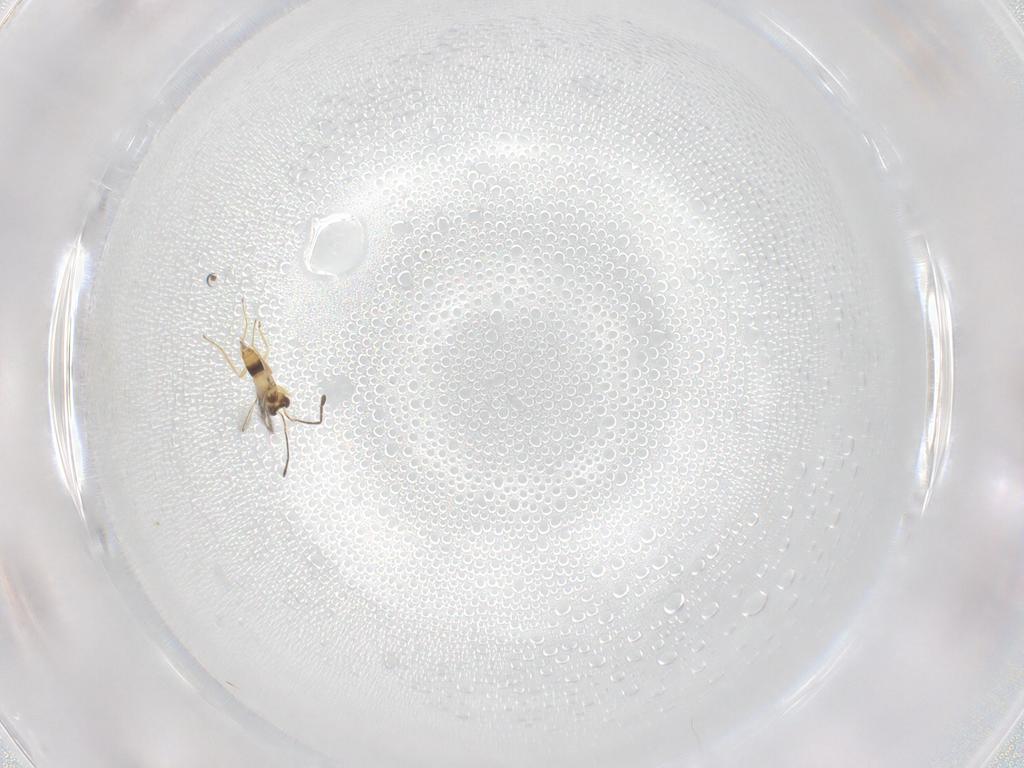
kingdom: Animalia
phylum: Arthropoda
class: Insecta
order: Hymenoptera
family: Mymaridae
